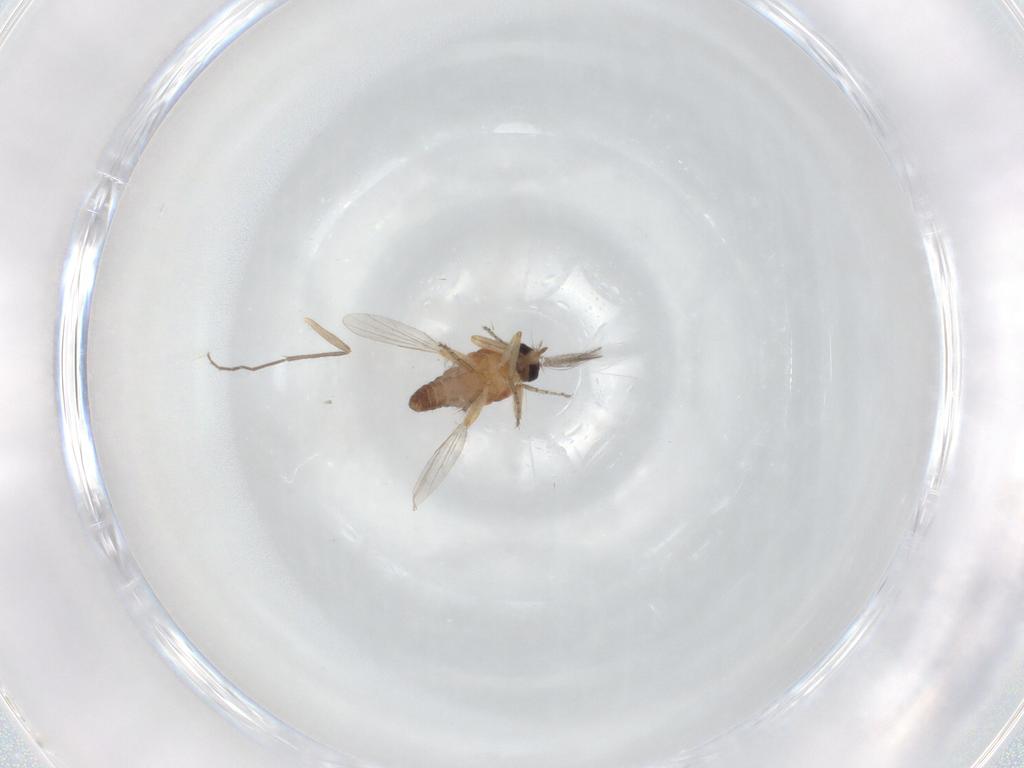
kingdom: Animalia
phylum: Arthropoda
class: Insecta
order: Diptera
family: Ceratopogonidae
